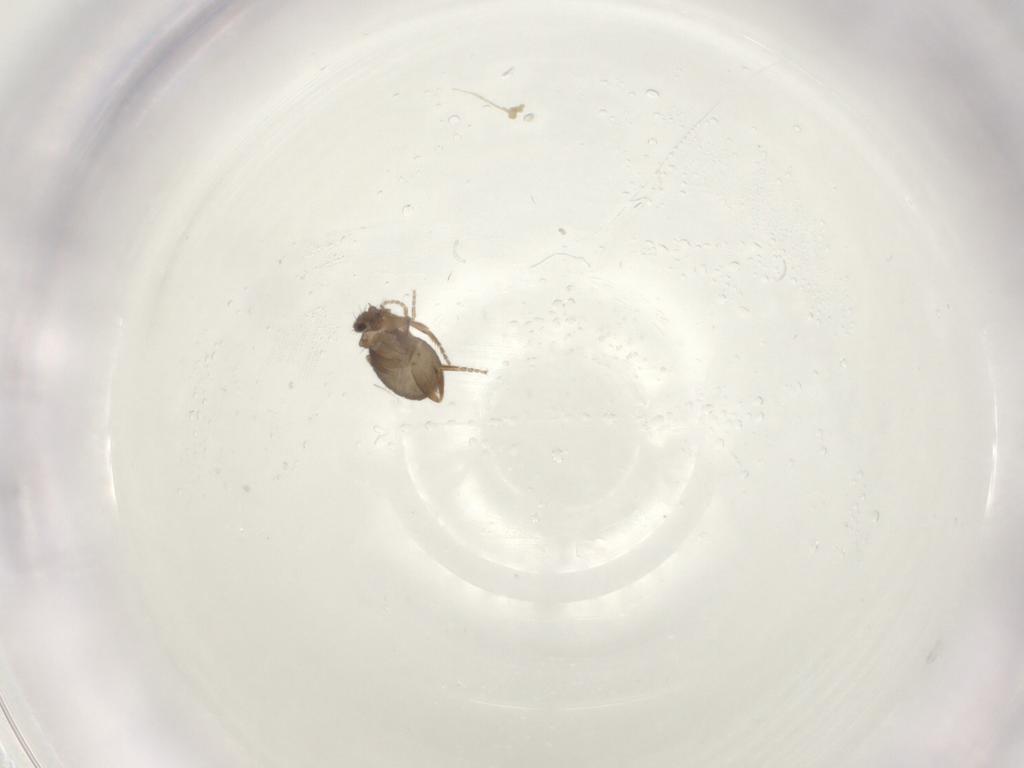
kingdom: Animalia
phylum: Arthropoda
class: Insecta
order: Diptera
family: Phoridae
